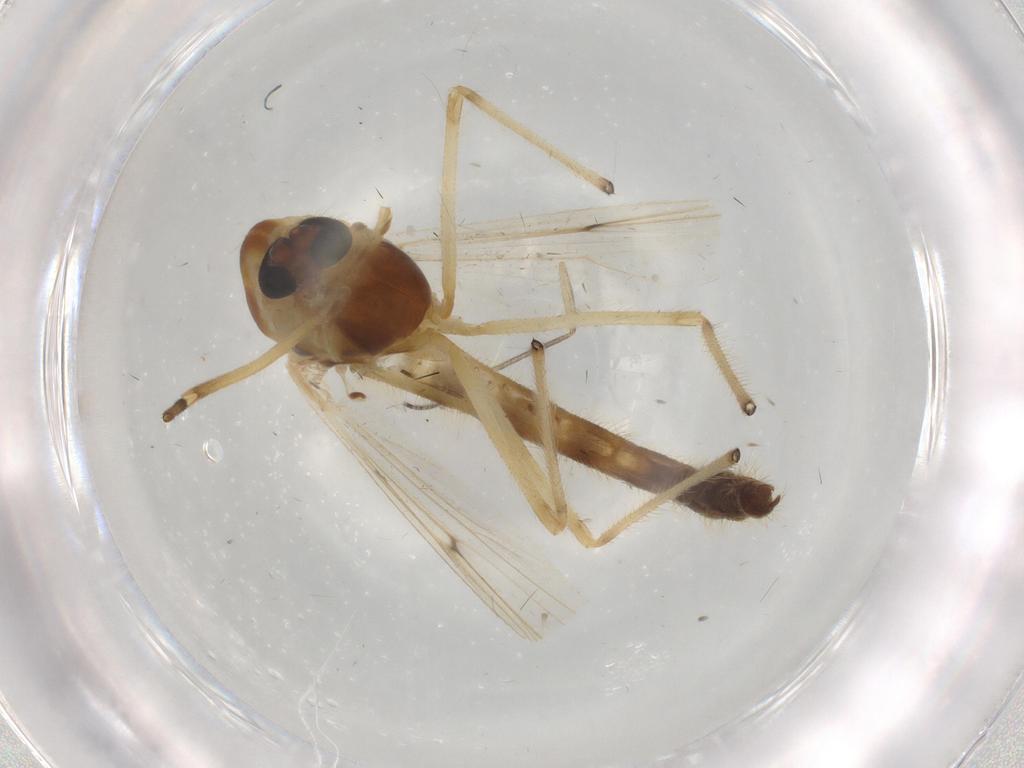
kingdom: Animalia
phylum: Arthropoda
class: Insecta
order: Diptera
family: Chironomidae
